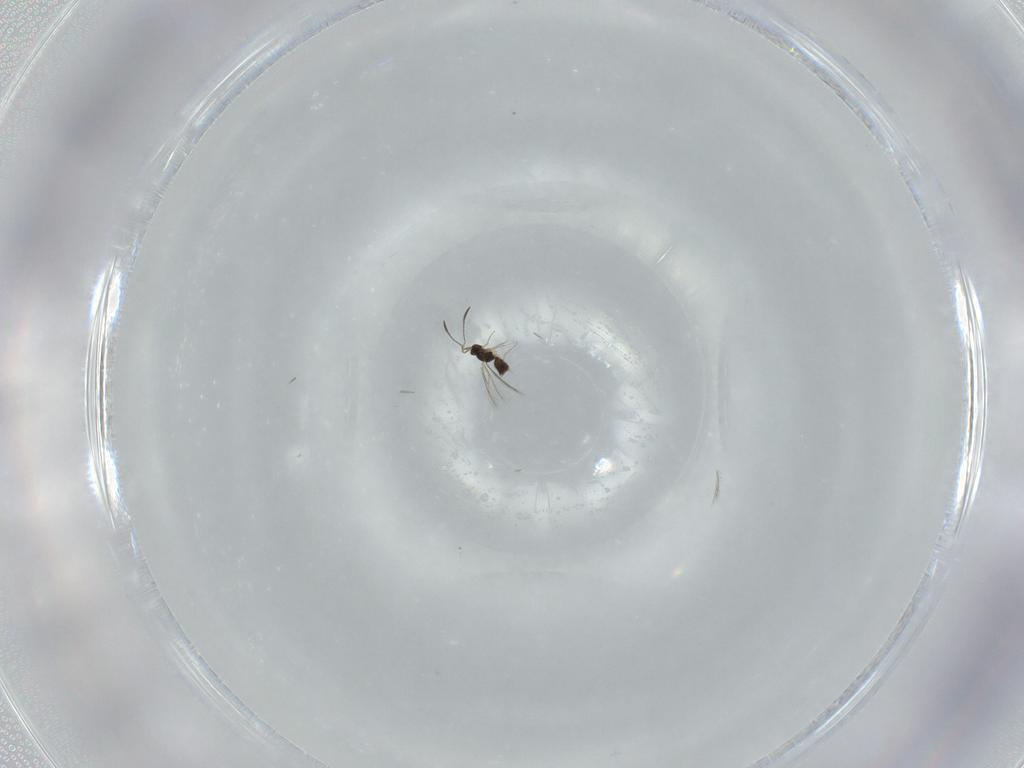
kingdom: Animalia
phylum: Arthropoda
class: Insecta
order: Hymenoptera
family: Mymaridae
